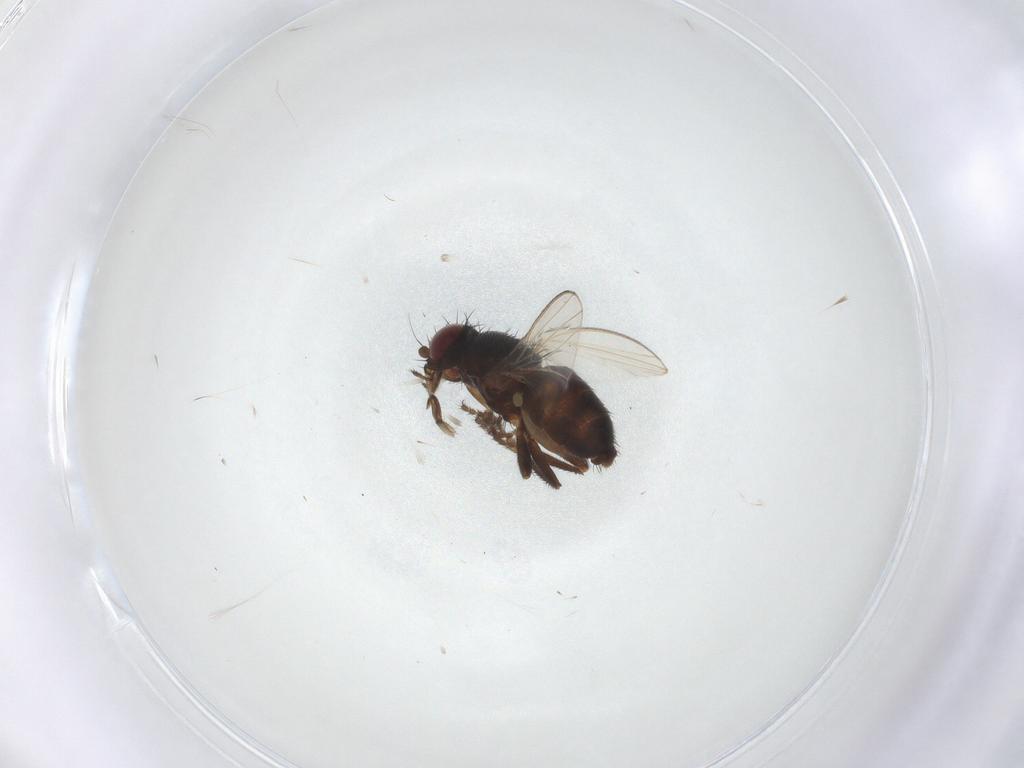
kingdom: Animalia
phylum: Arthropoda
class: Insecta
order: Diptera
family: Milichiidae
